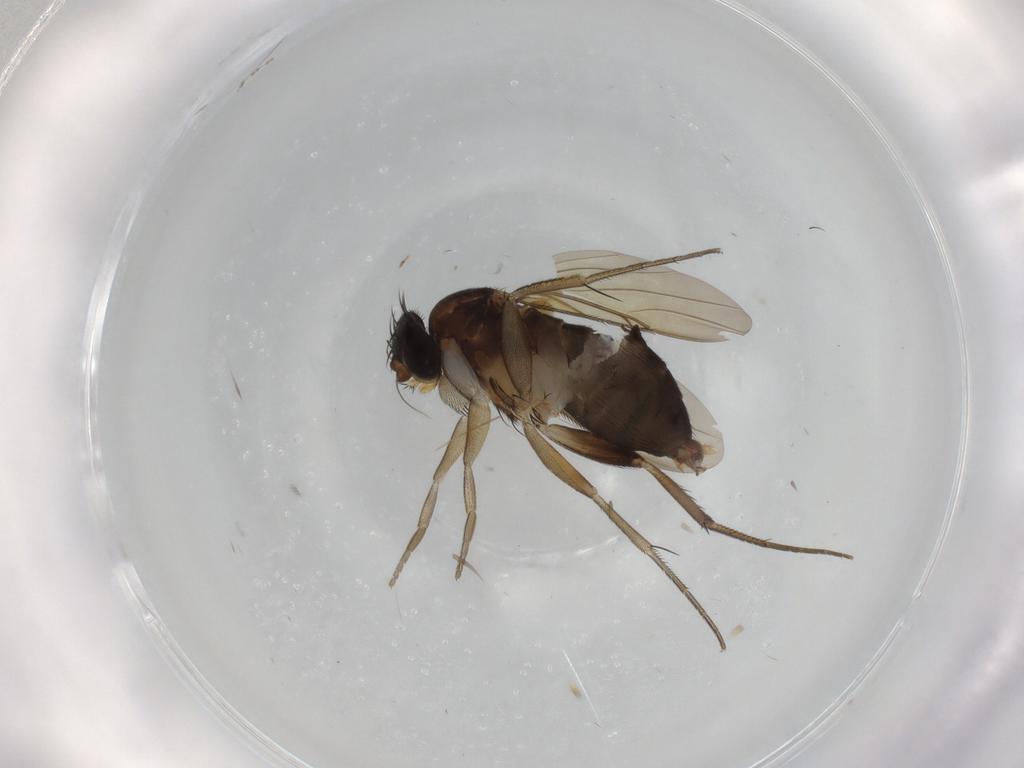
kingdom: Animalia
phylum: Arthropoda
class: Insecta
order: Diptera
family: Phoridae
